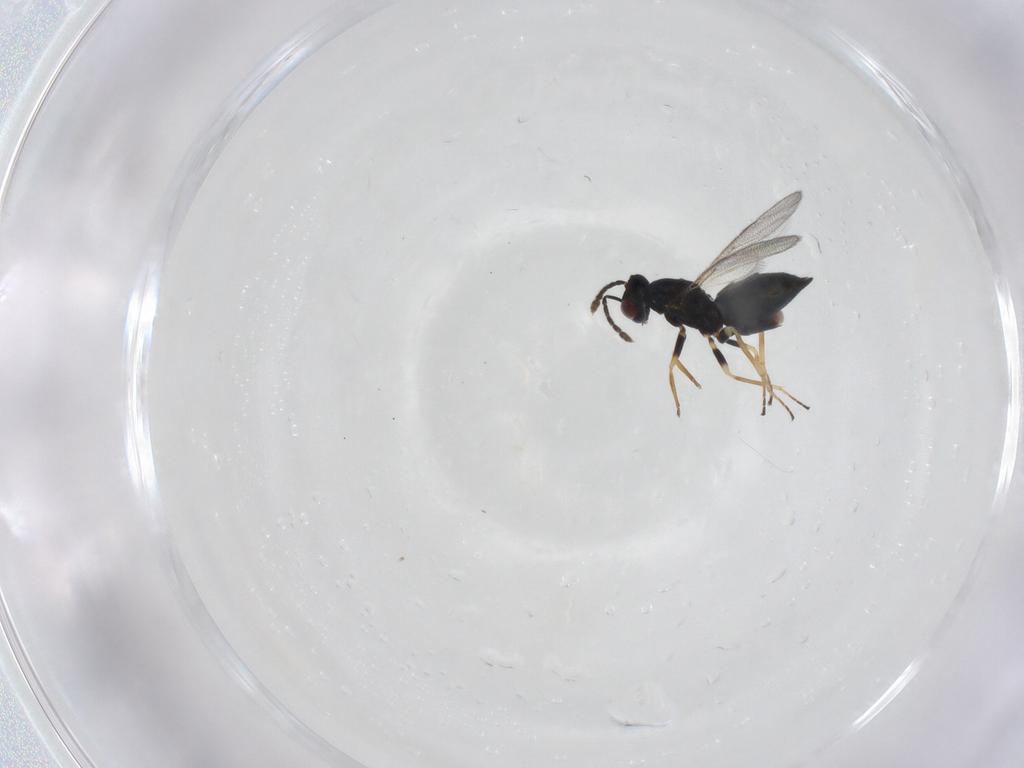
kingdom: Animalia
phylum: Arthropoda
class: Insecta
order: Hymenoptera
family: Eulophidae
